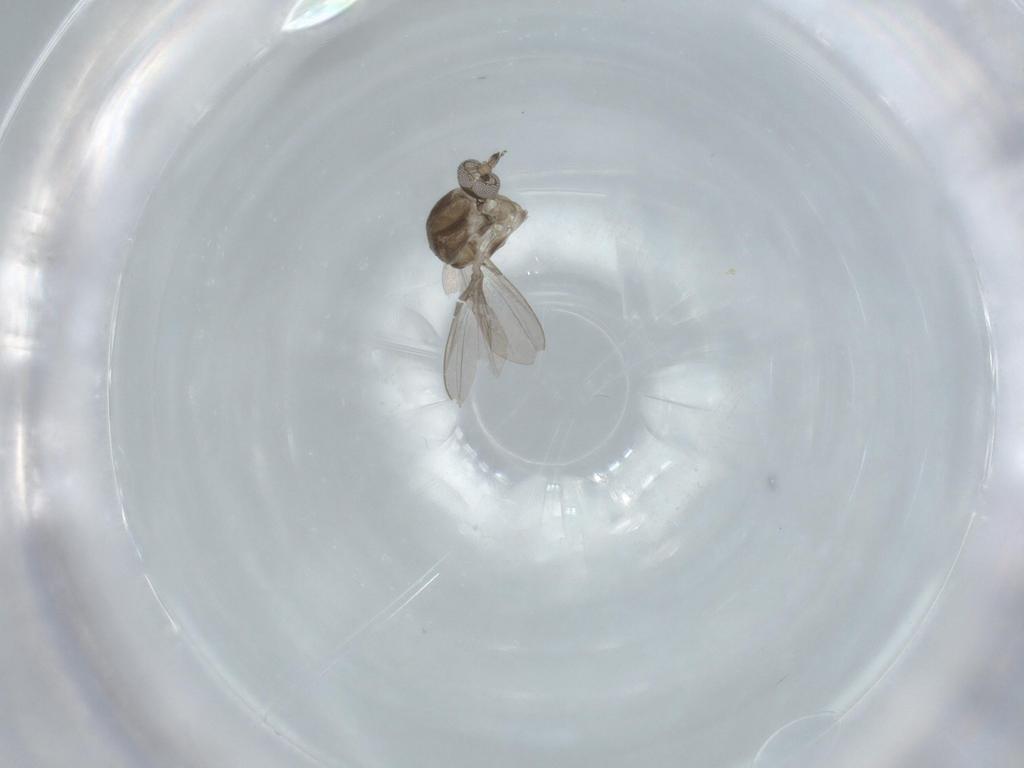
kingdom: Animalia
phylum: Arthropoda
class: Insecta
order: Diptera
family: Ceratopogonidae
